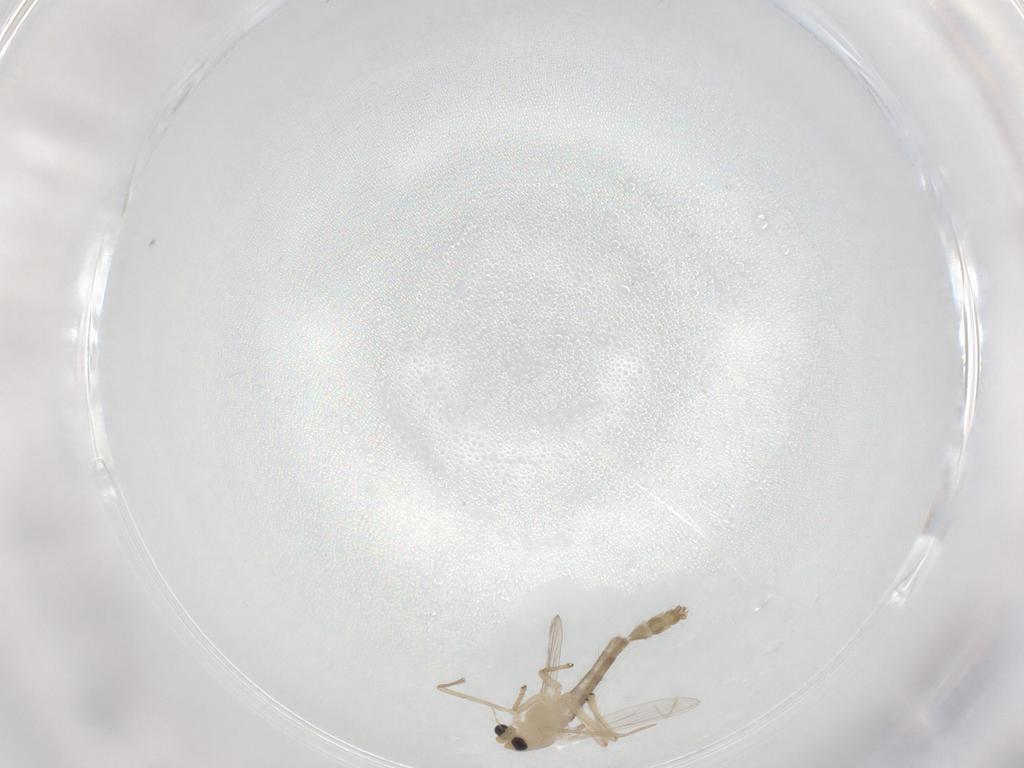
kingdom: Animalia
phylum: Arthropoda
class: Insecta
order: Diptera
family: Chironomidae
